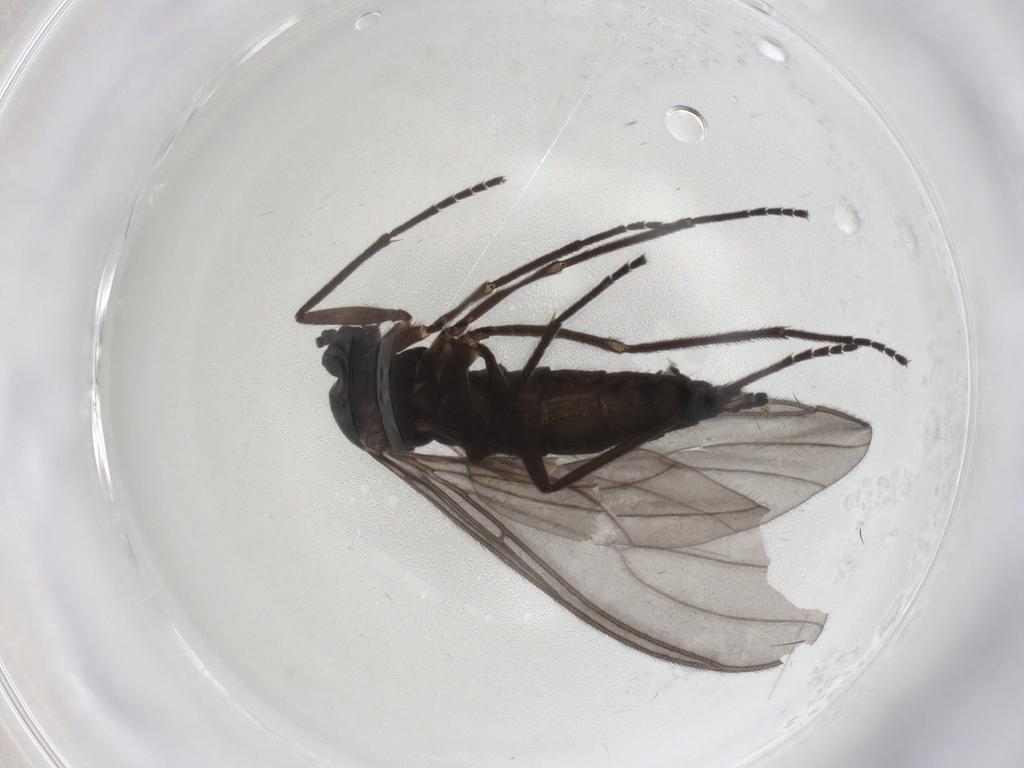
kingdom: Animalia
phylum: Arthropoda
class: Insecta
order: Diptera
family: Sciaridae
